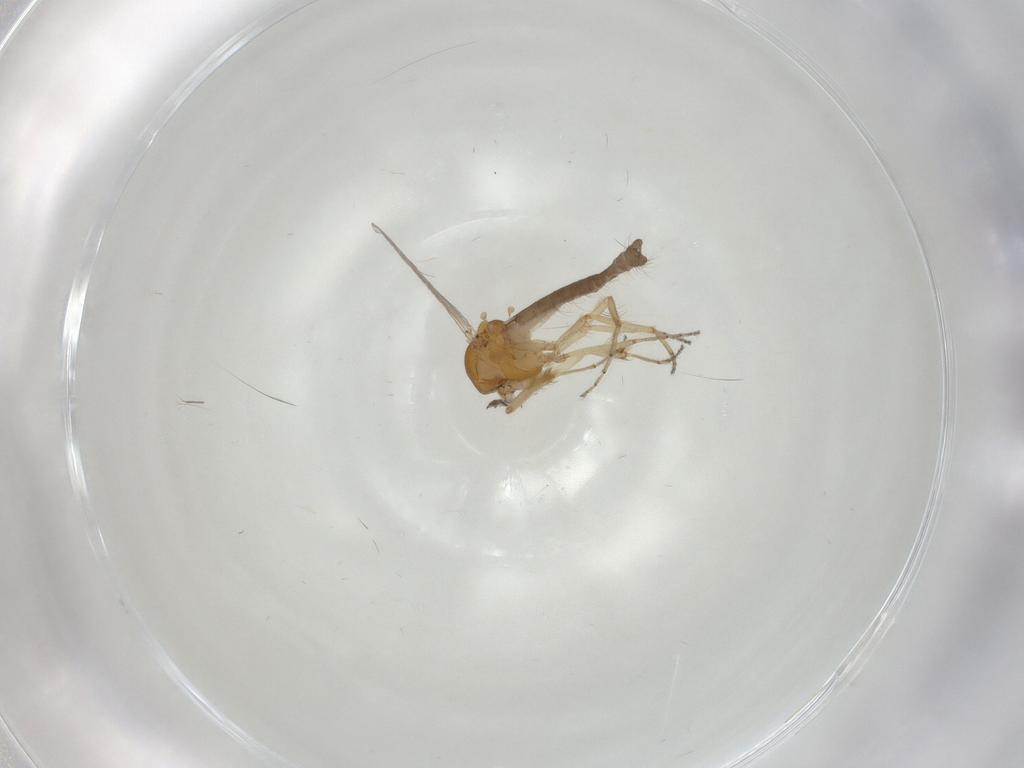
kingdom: Animalia
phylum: Arthropoda
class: Insecta
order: Diptera
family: Ceratopogonidae
